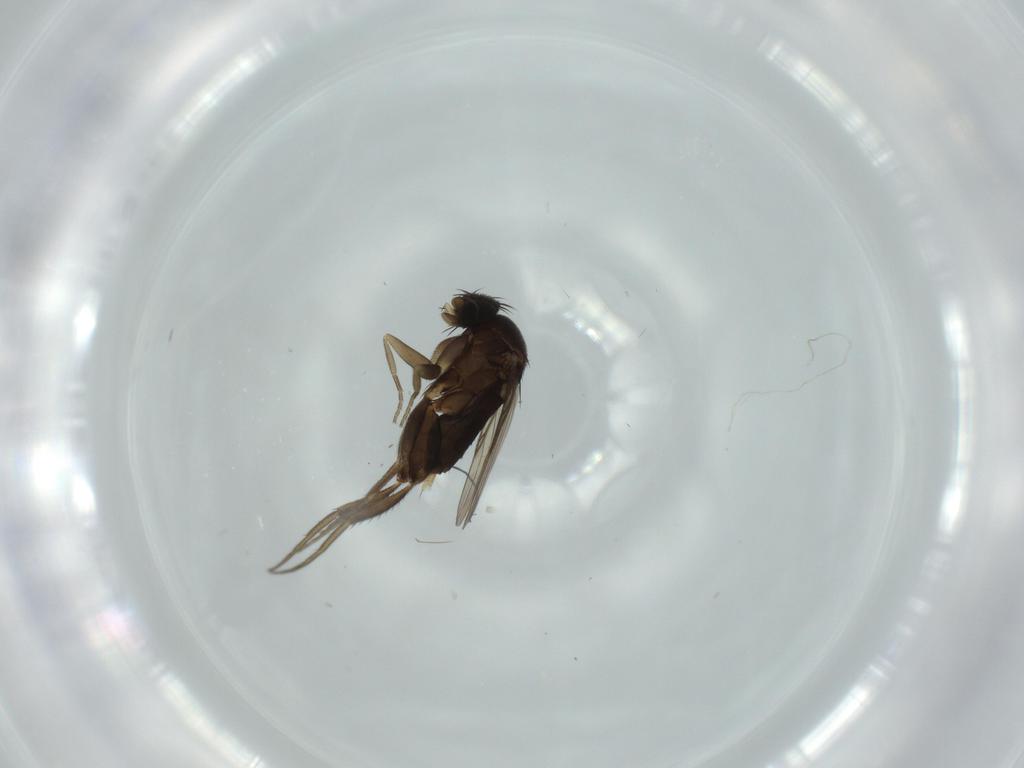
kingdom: Animalia
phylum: Arthropoda
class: Insecta
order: Diptera
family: Phoridae
